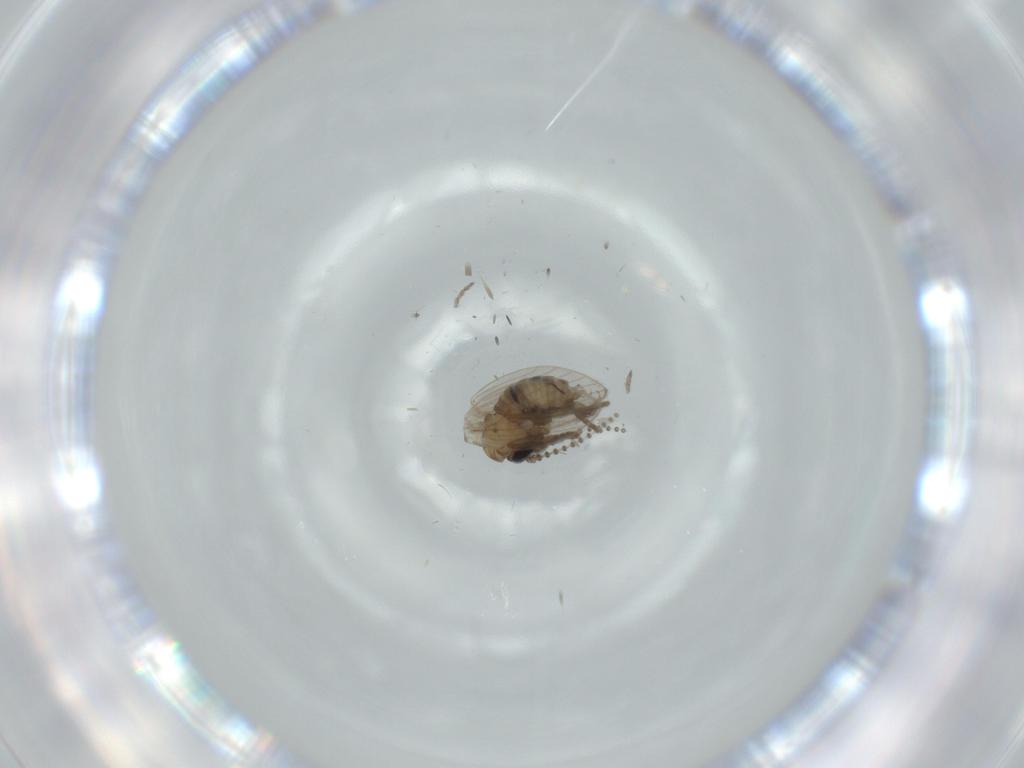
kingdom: Animalia
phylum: Arthropoda
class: Insecta
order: Diptera
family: Psychodidae
